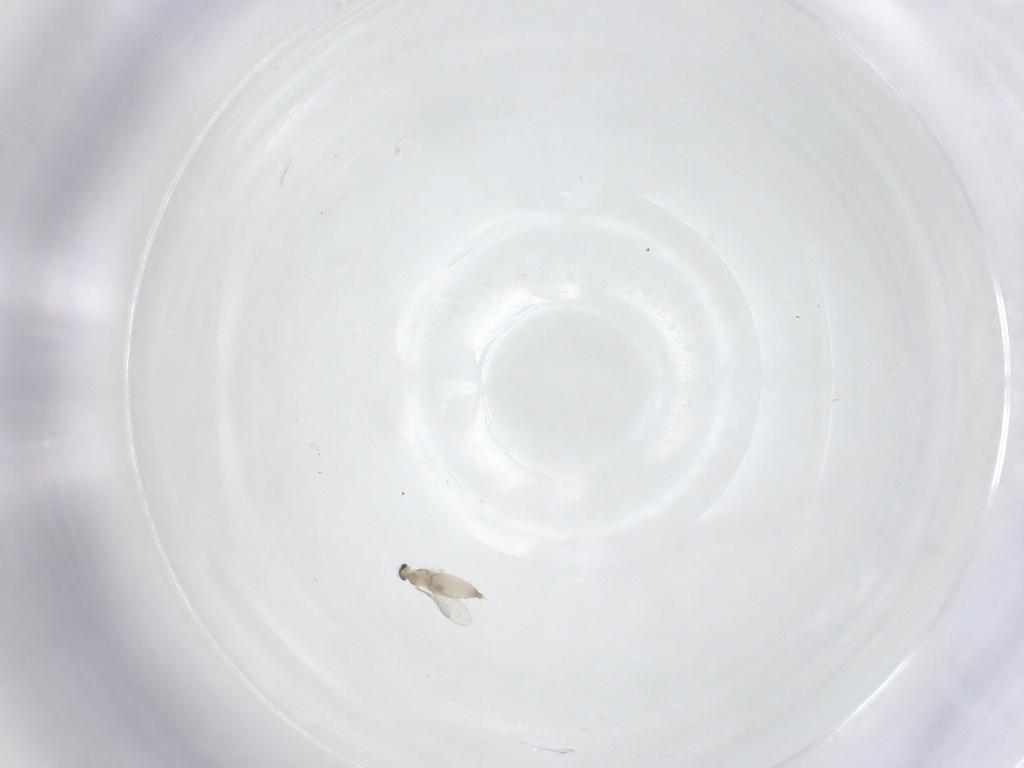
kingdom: Animalia
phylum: Arthropoda
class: Insecta
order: Diptera
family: Cecidomyiidae
